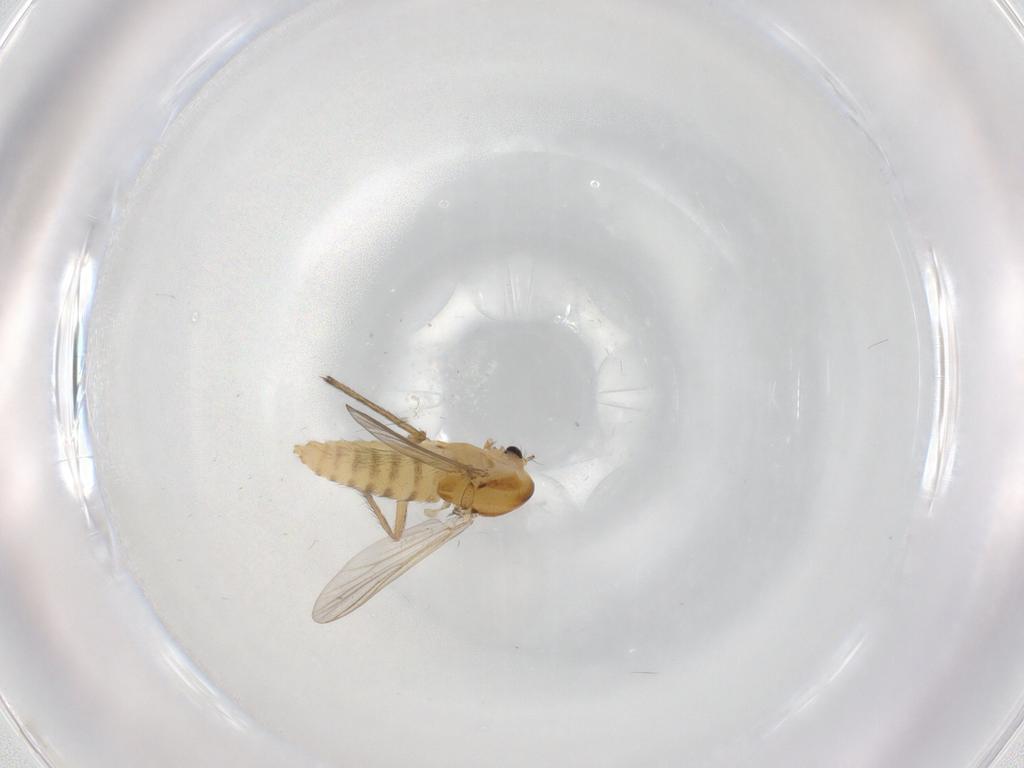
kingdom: Animalia
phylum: Arthropoda
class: Insecta
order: Diptera
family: Chironomidae
